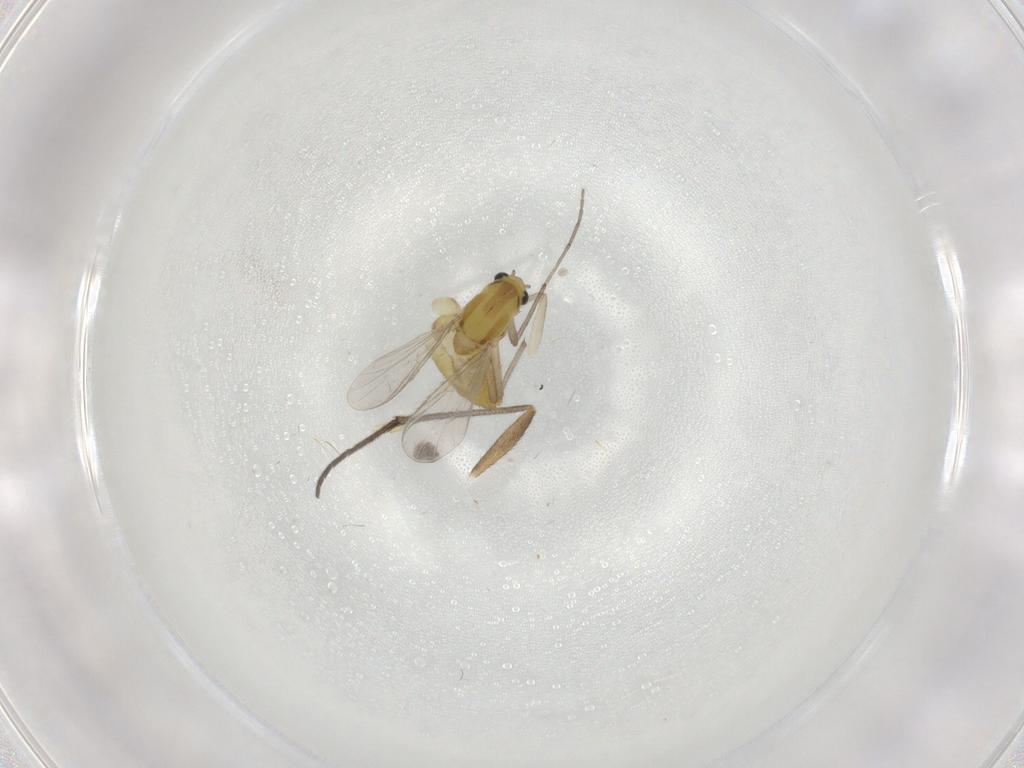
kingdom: Animalia
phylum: Arthropoda
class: Insecta
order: Diptera
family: Chironomidae
